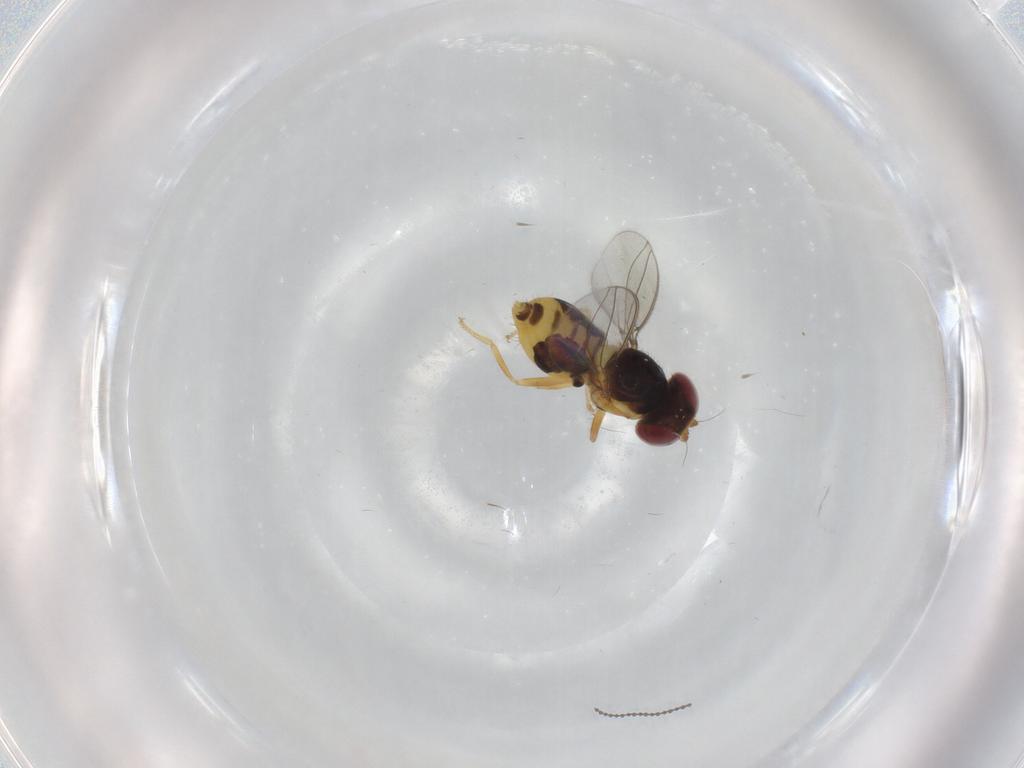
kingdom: Animalia
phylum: Arthropoda
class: Insecta
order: Diptera
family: Asteiidae
